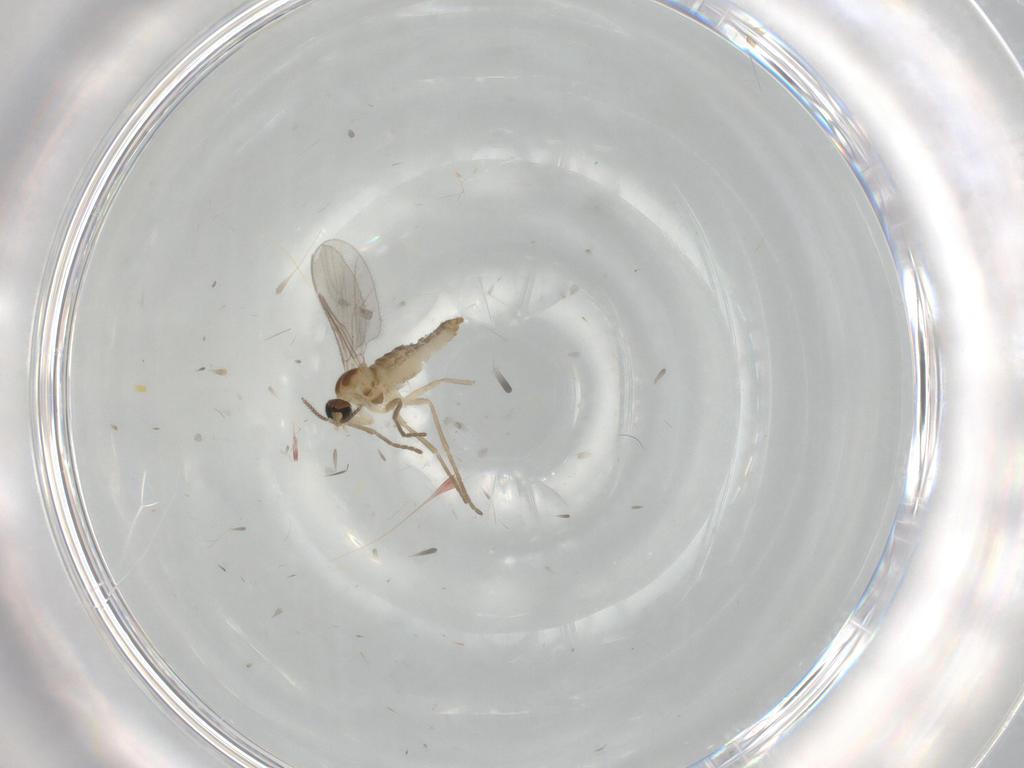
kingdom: Animalia
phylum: Arthropoda
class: Insecta
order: Diptera
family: Cecidomyiidae
